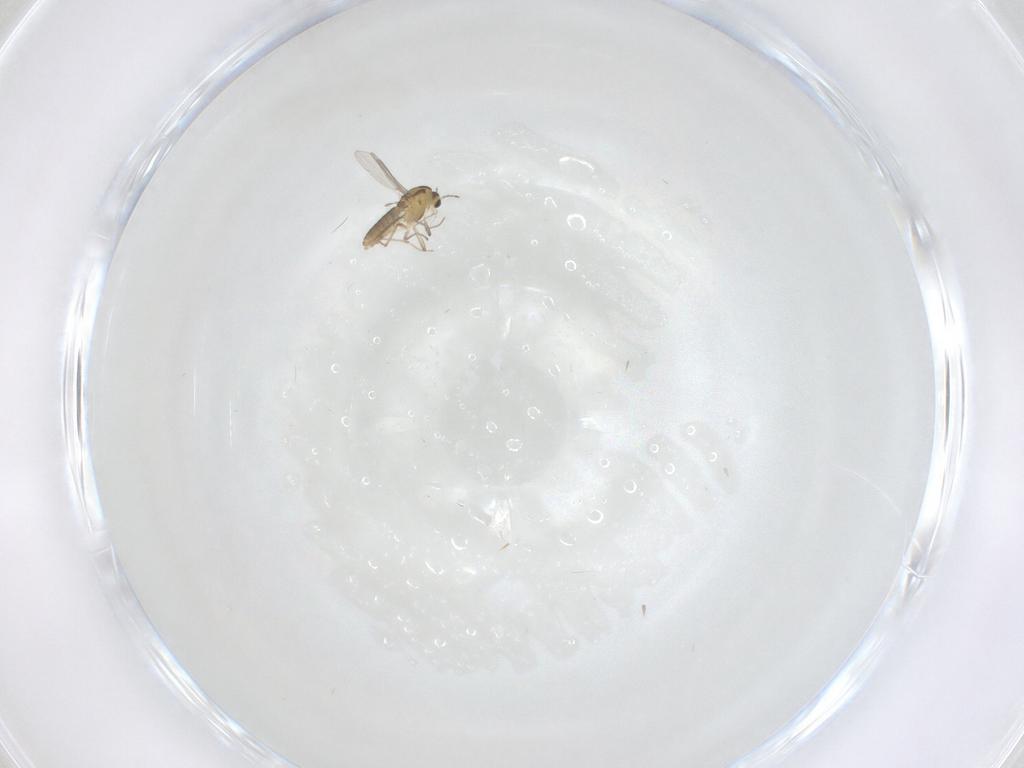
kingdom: Animalia
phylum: Arthropoda
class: Insecta
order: Diptera
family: Chironomidae
